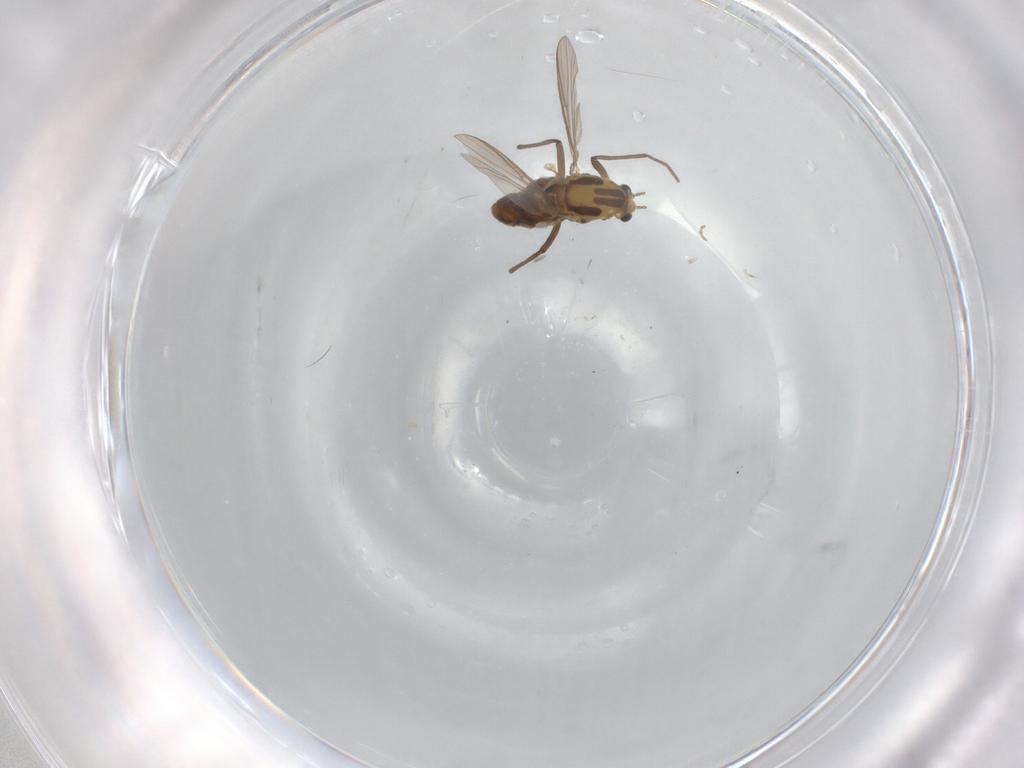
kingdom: Animalia
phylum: Arthropoda
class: Insecta
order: Diptera
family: Chironomidae
